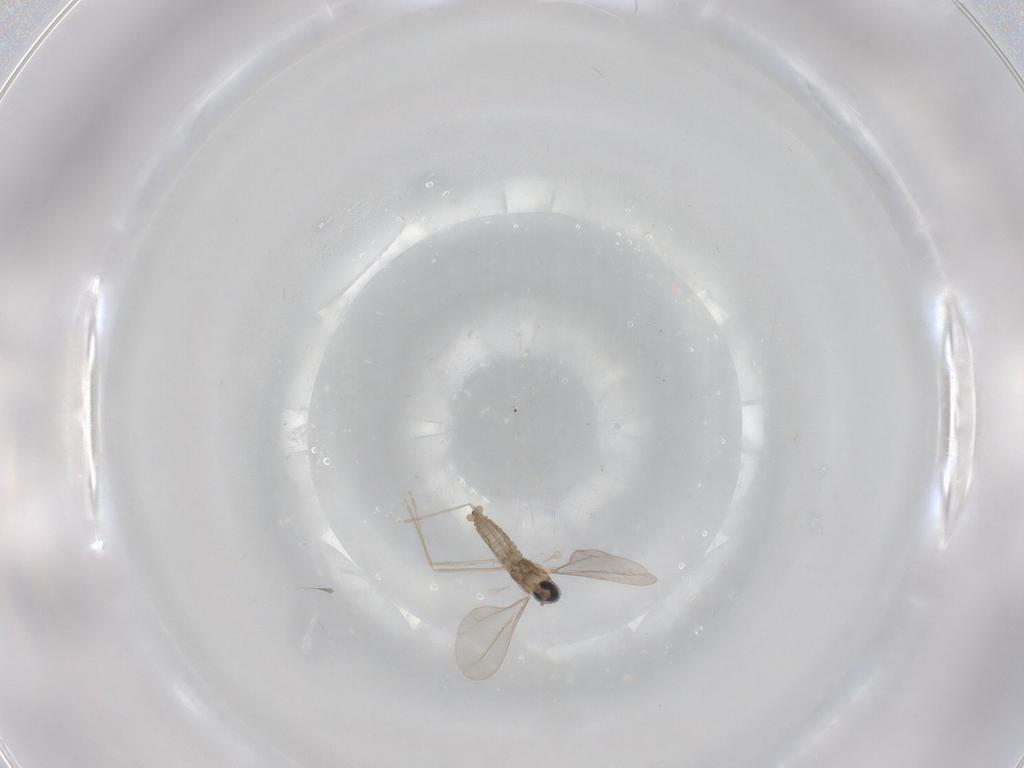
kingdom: Animalia
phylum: Arthropoda
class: Insecta
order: Diptera
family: Cecidomyiidae
